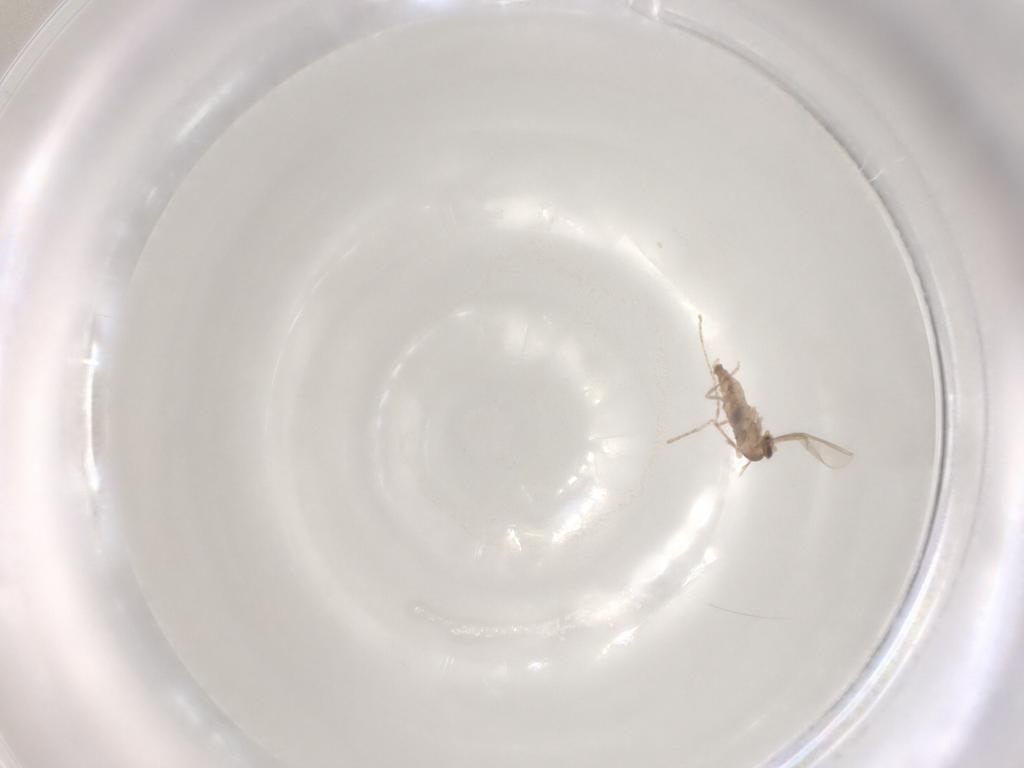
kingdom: Animalia
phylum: Arthropoda
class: Insecta
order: Diptera
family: Cecidomyiidae
